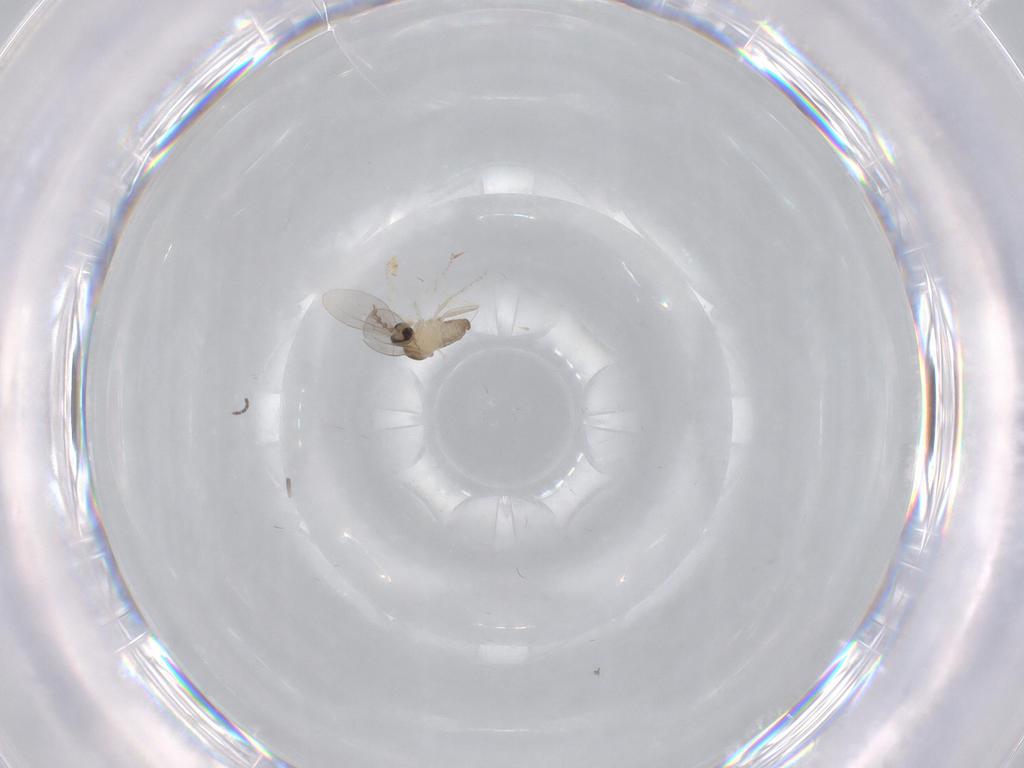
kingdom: Animalia
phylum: Arthropoda
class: Insecta
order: Diptera
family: Cecidomyiidae
